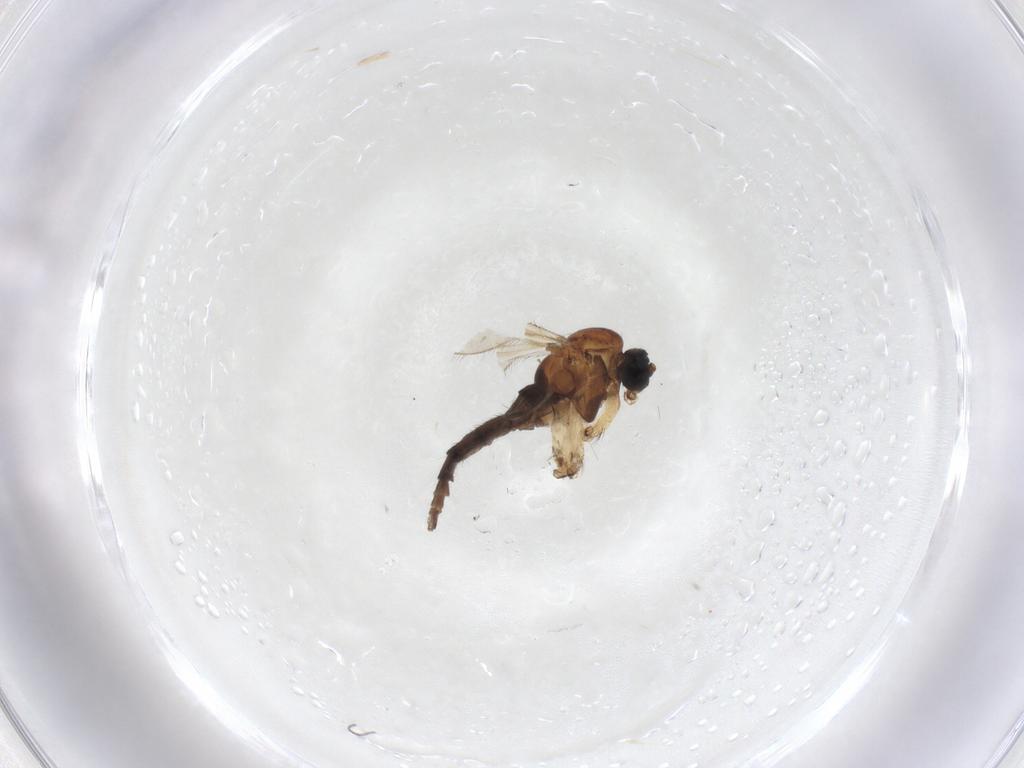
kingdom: Animalia
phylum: Arthropoda
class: Insecta
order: Diptera
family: Sciaridae
